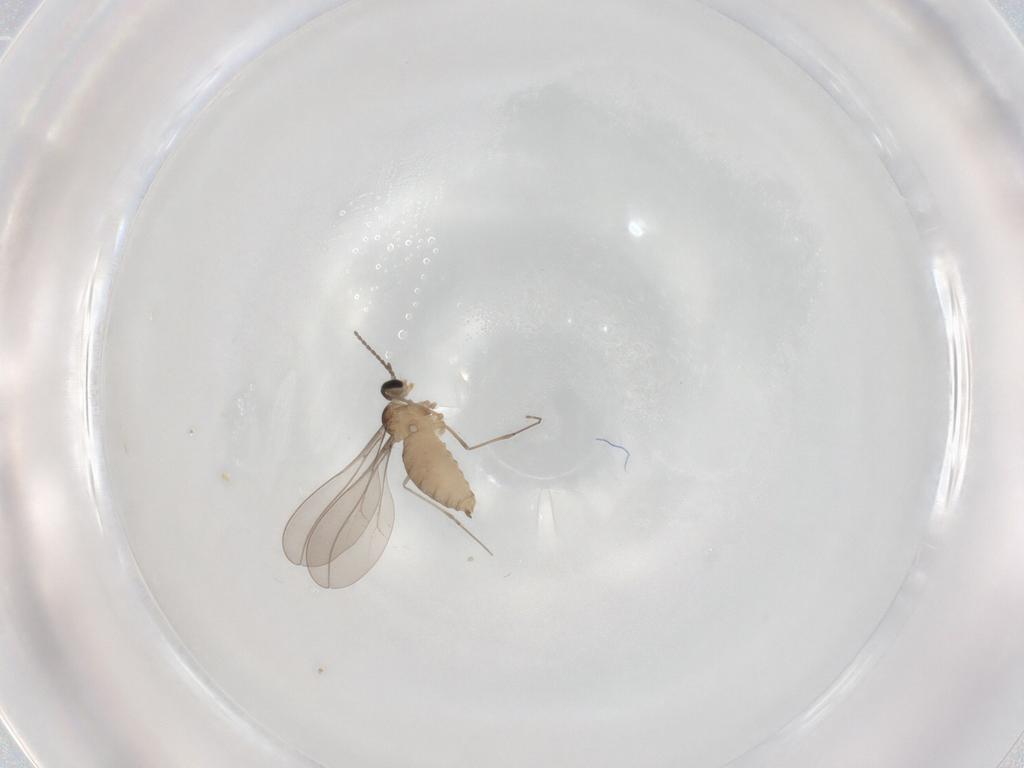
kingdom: Animalia
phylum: Arthropoda
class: Insecta
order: Diptera
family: Cecidomyiidae
